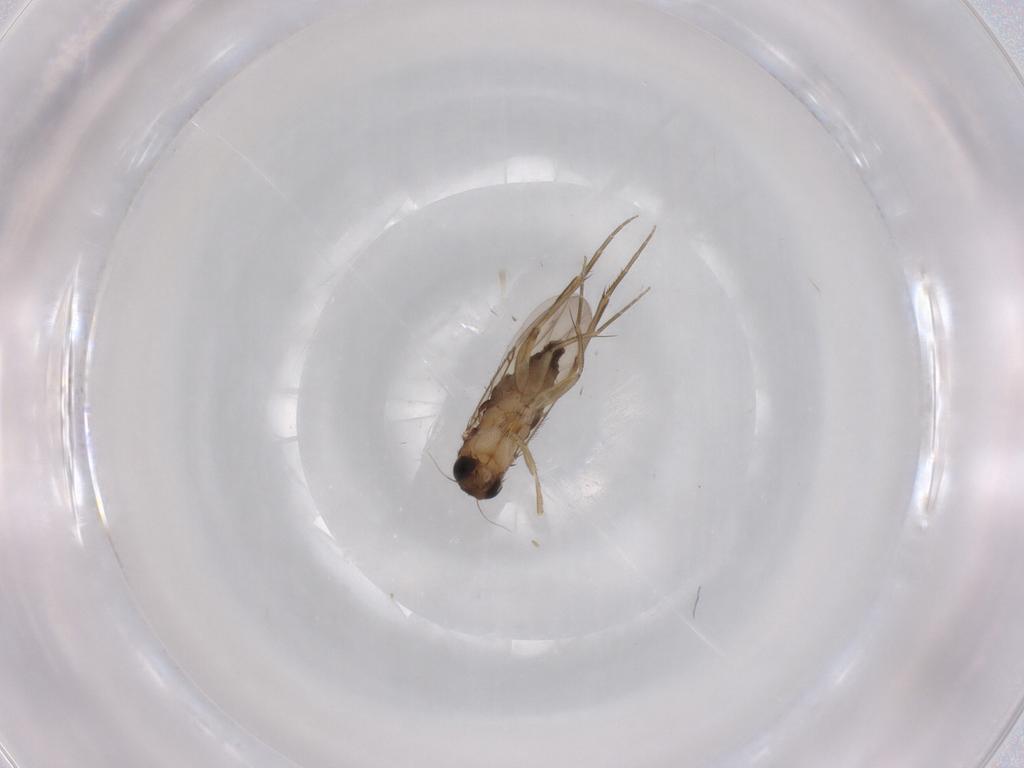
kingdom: Animalia
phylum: Arthropoda
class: Insecta
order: Diptera
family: Phoridae
